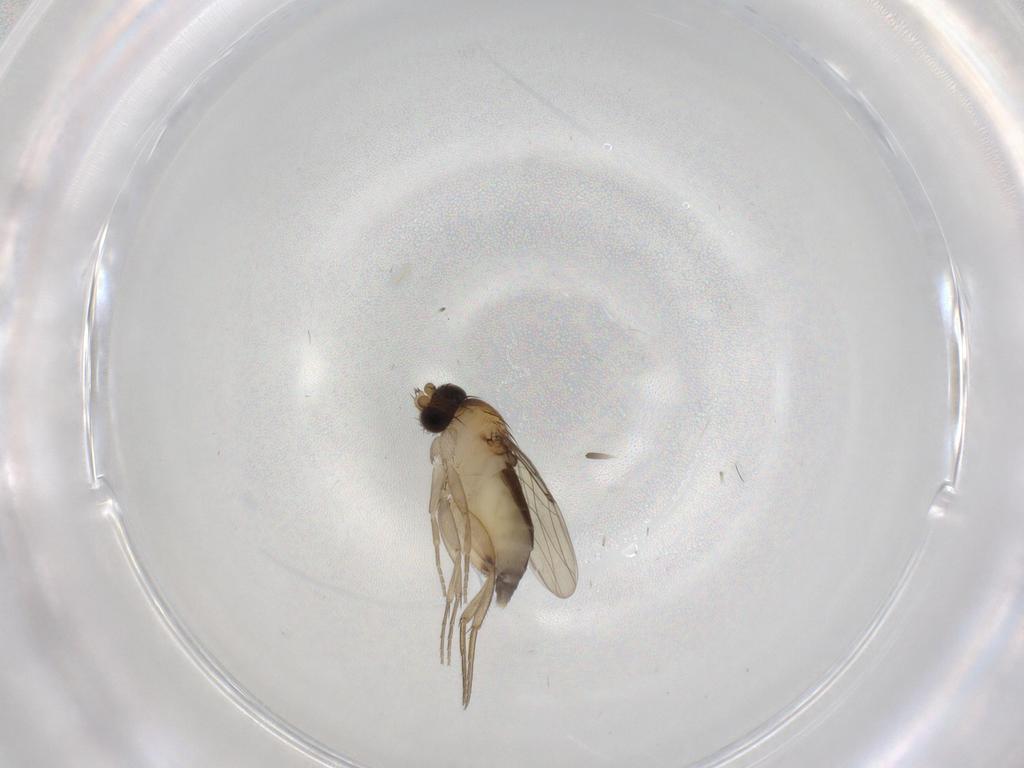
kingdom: Animalia
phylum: Arthropoda
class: Insecta
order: Diptera
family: Phoridae
